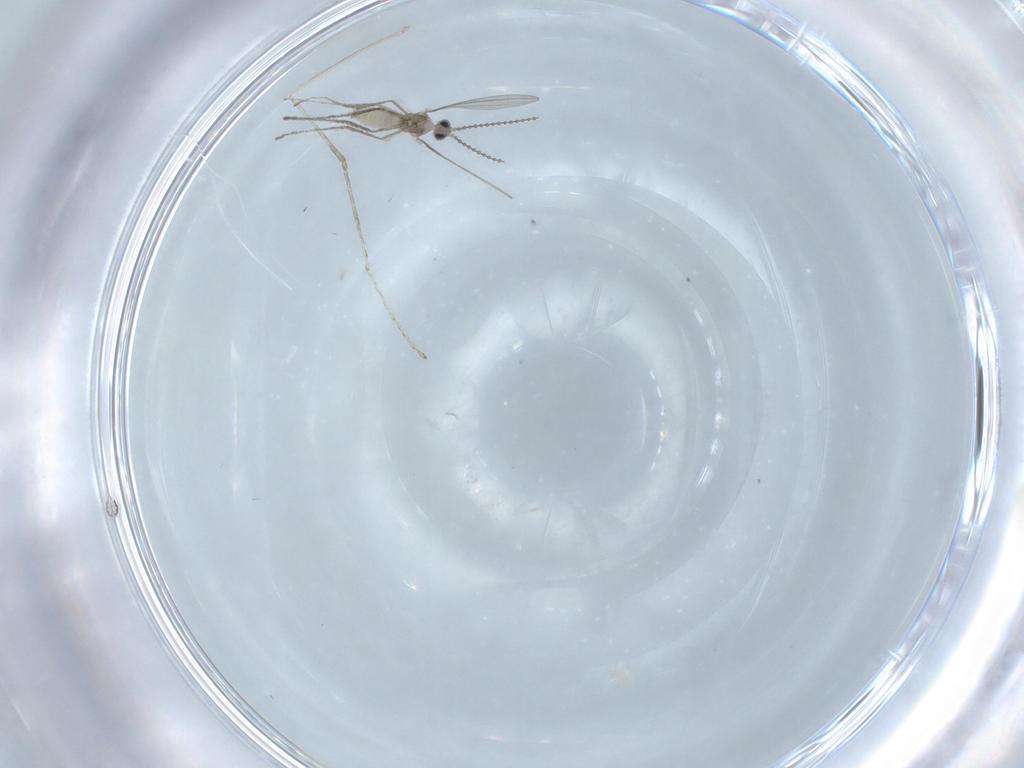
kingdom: Animalia
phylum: Arthropoda
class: Insecta
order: Diptera
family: Cecidomyiidae
